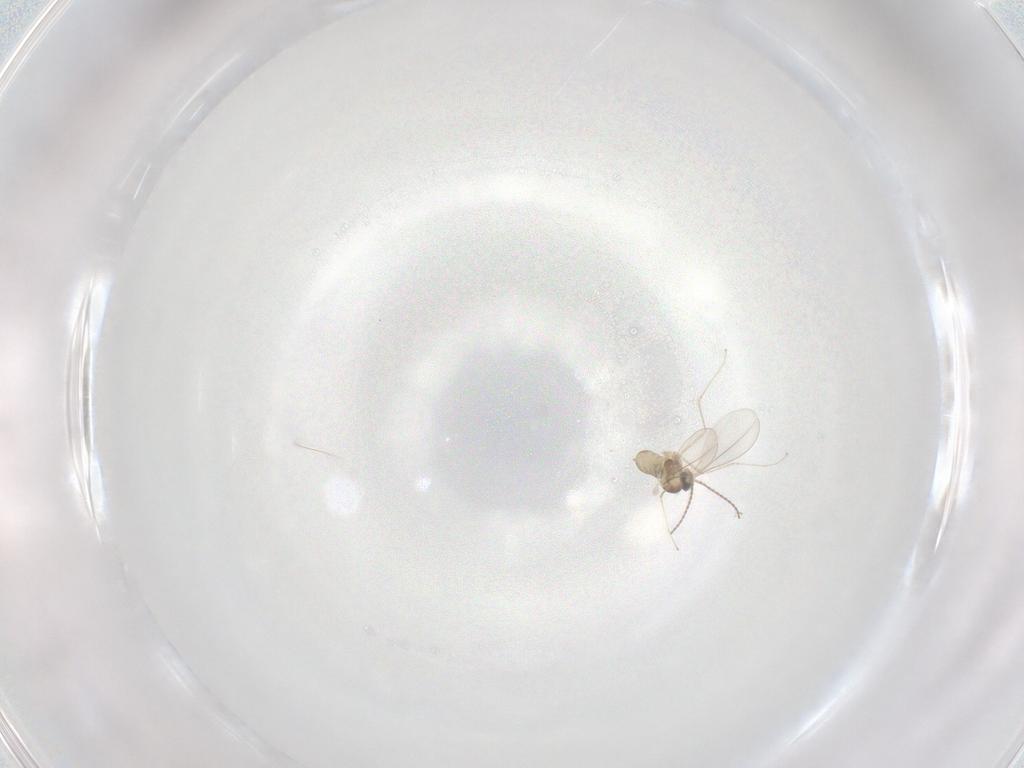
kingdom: Animalia
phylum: Arthropoda
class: Insecta
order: Diptera
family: Cecidomyiidae
